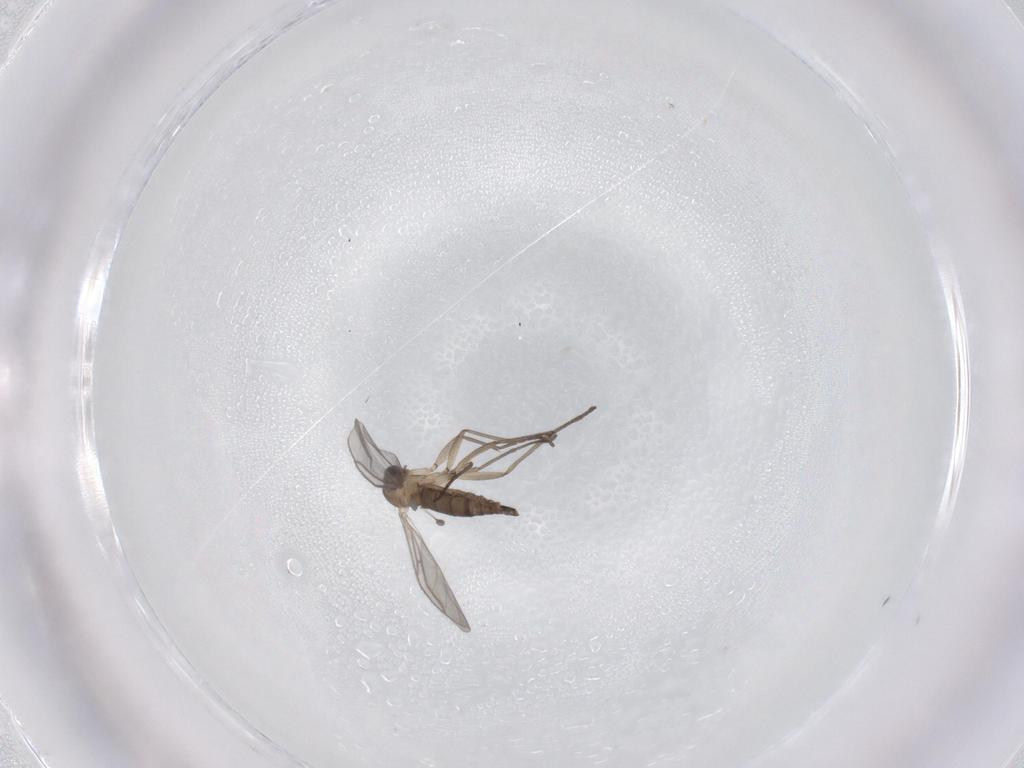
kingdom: Animalia
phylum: Arthropoda
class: Insecta
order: Diptera
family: Sciaridae
